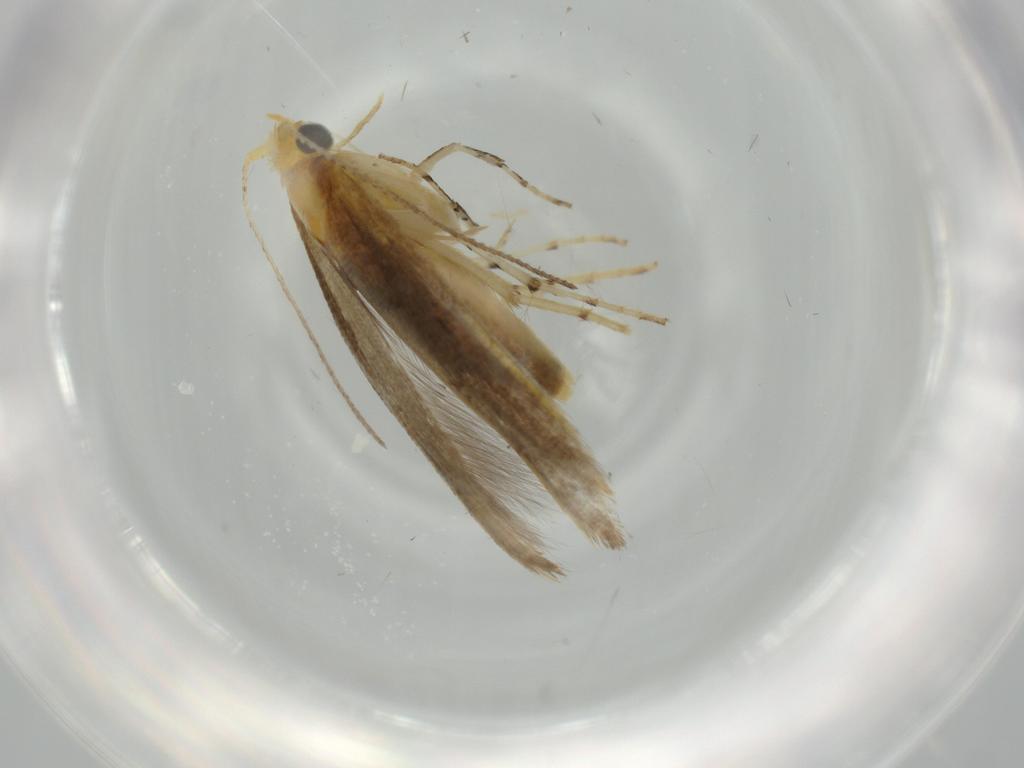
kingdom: Animalia
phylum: Arthropoda
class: Insecta
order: Lepidoptera
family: Argyresthiidae
